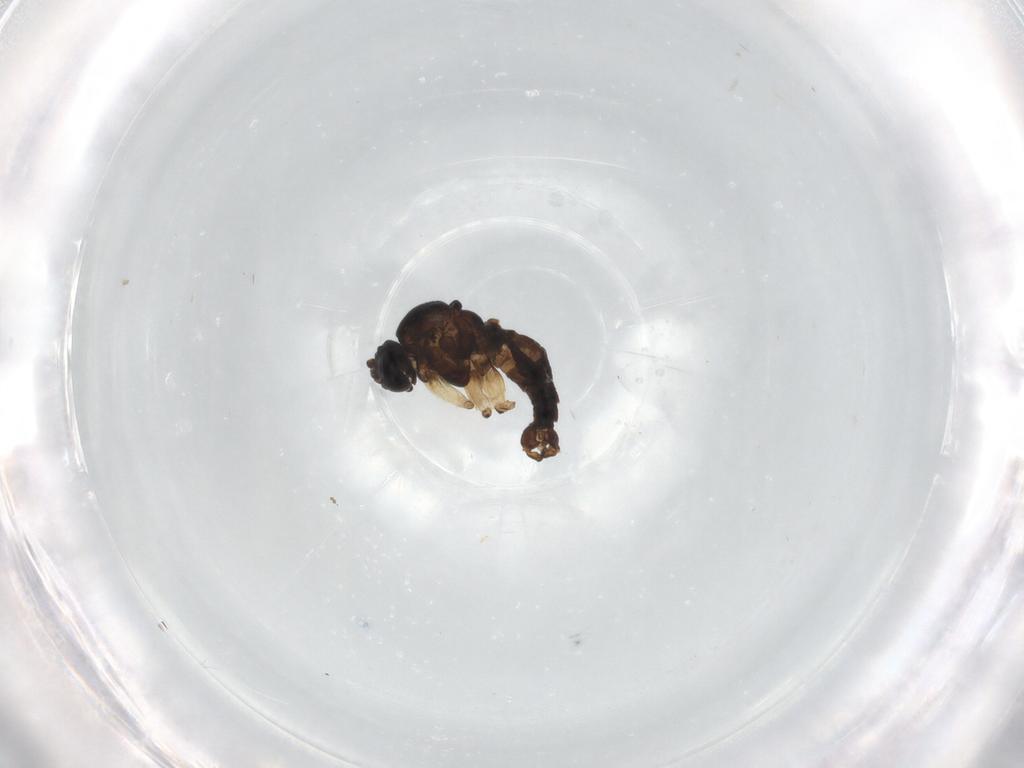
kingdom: Animalia
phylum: Arthropoda
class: Insecta
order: Diptera
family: Sciaridae
